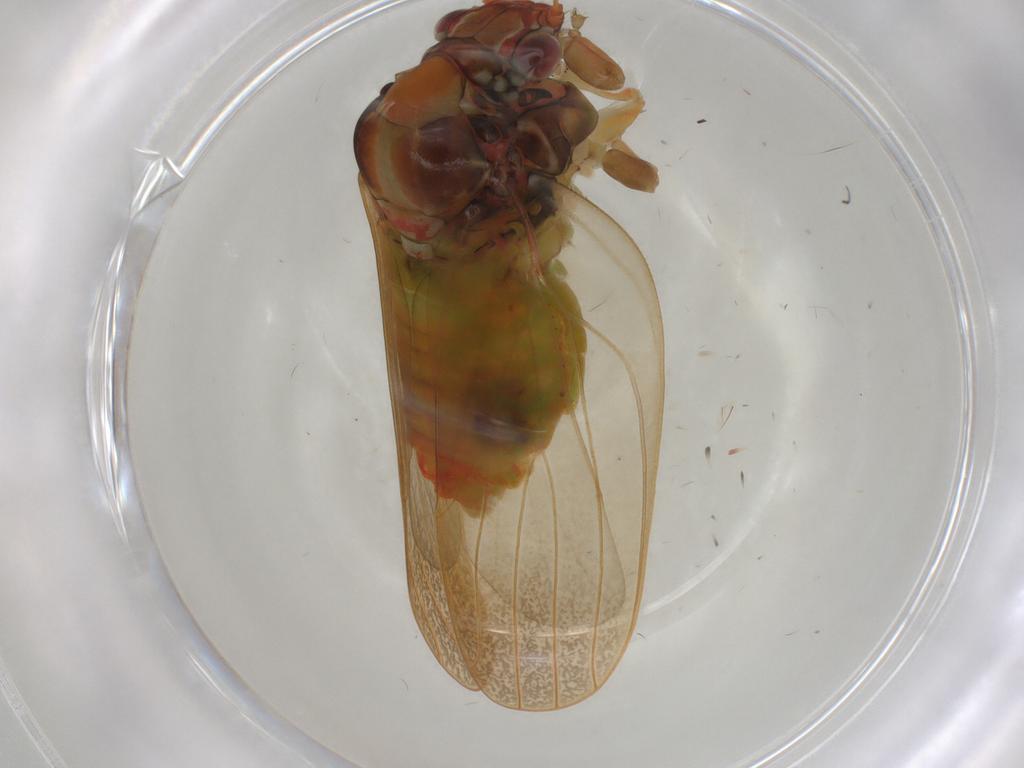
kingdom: Animalia
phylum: Arthropoda
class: Insecta
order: Hemiptera
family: Aphrophoridae
